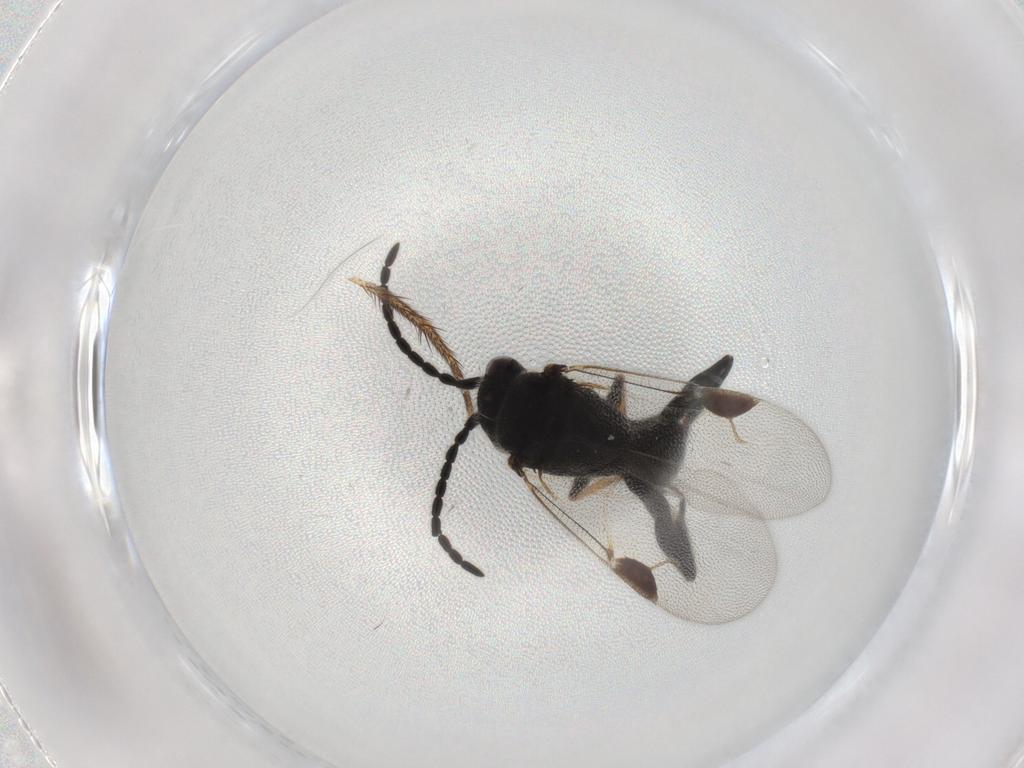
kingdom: Animalia
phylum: Arthropoda
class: Insecta
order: Hymenoptera
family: Dryinidae
